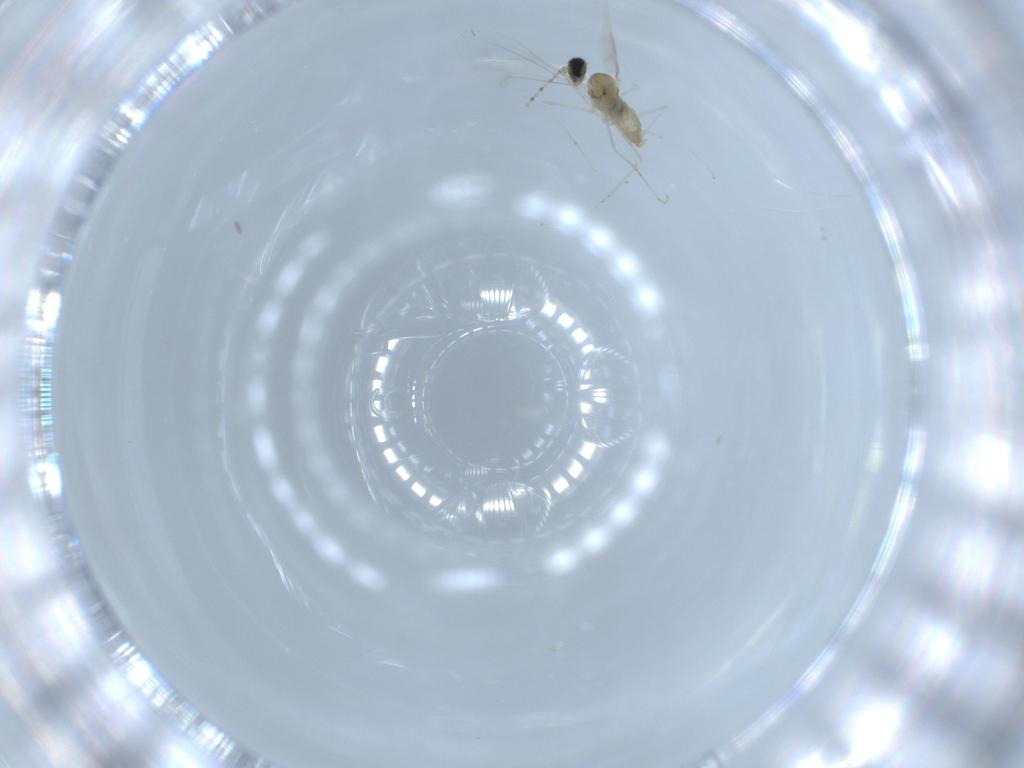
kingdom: Animalia
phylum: Arthropoda
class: Insecta
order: Diptera
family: Cecidomyiidae
